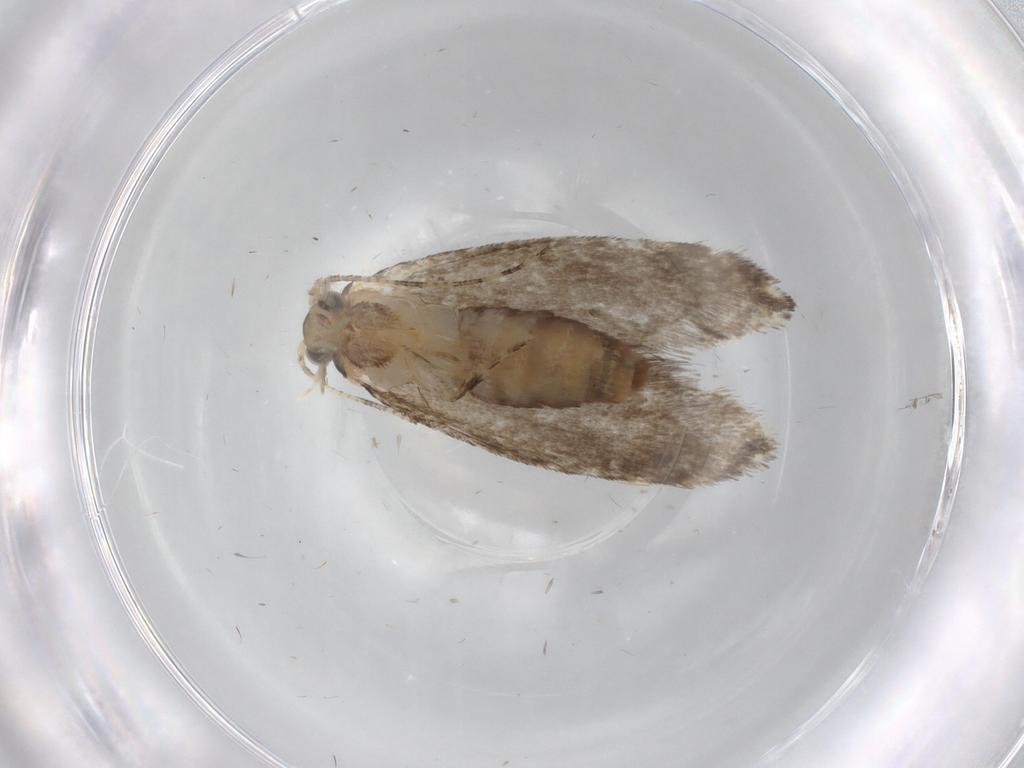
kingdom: Animalia
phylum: Arthropoda
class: Insecta
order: Lepidoptera
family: Tineidae
